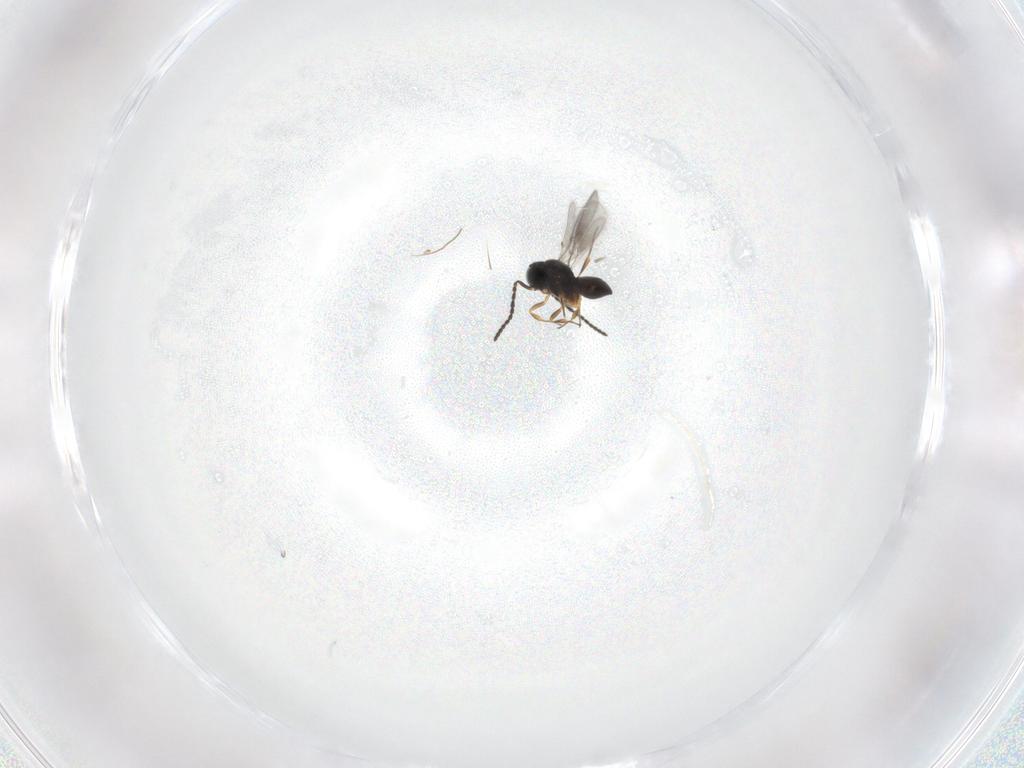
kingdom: Animalia
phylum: Arthropoda
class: Insecta
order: Hymenoptera
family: Scelionidae
